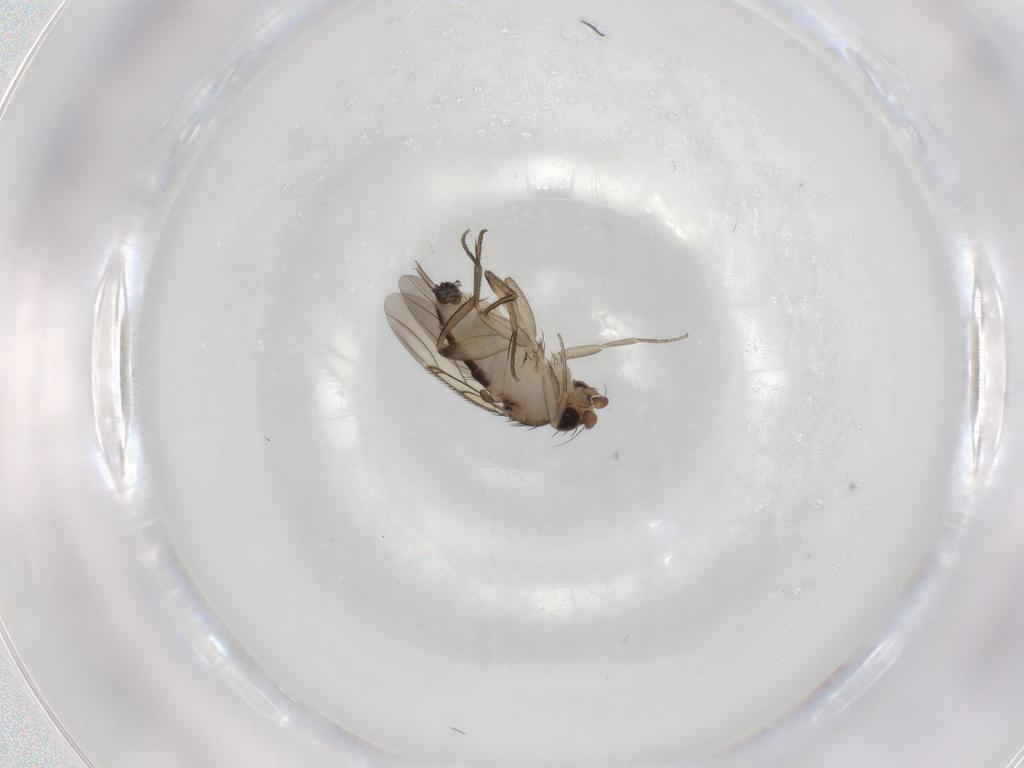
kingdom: Animalia
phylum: Arthropoda
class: Insecta
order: Diptera
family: Phoridae
